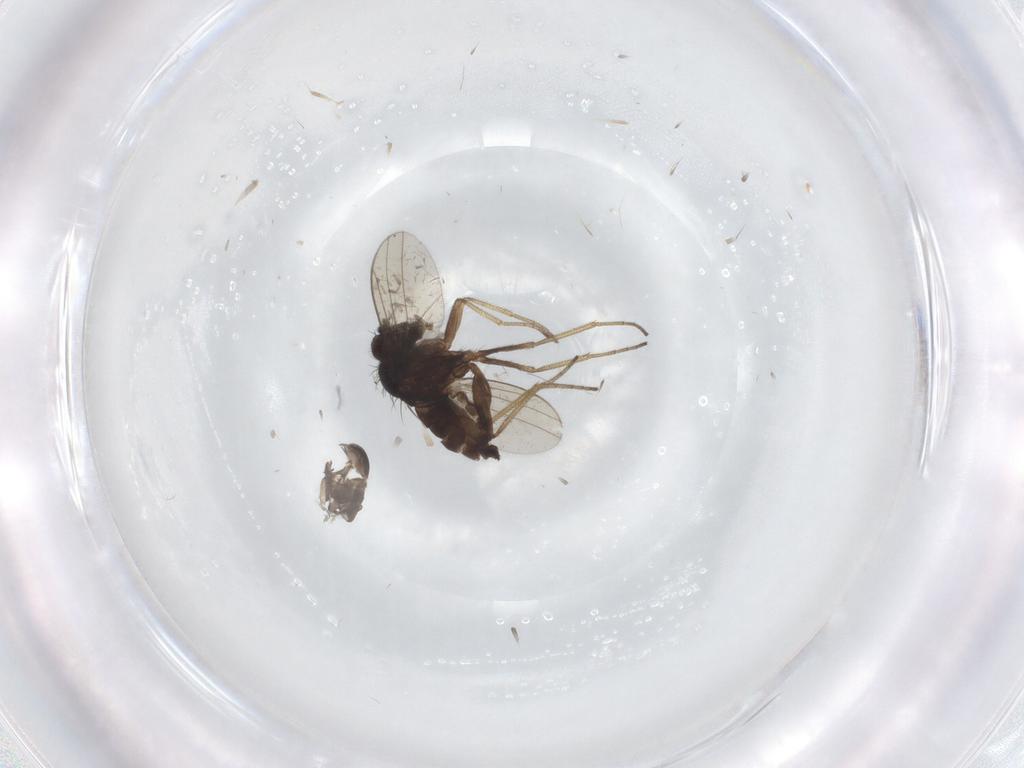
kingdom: Animalia
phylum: Arthropoda
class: Insecta
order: Diptera
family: Dolichopodidae
